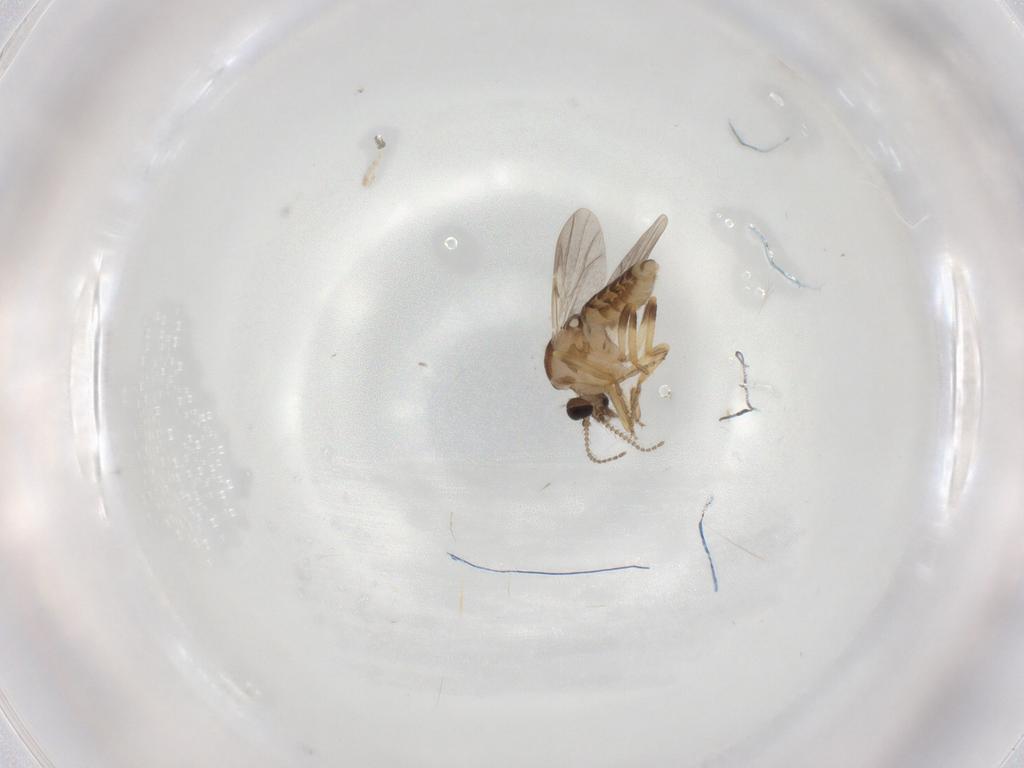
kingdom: Animalia
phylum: Arthropoda
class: Insecta
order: Diptera
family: Ceratopogonidae
